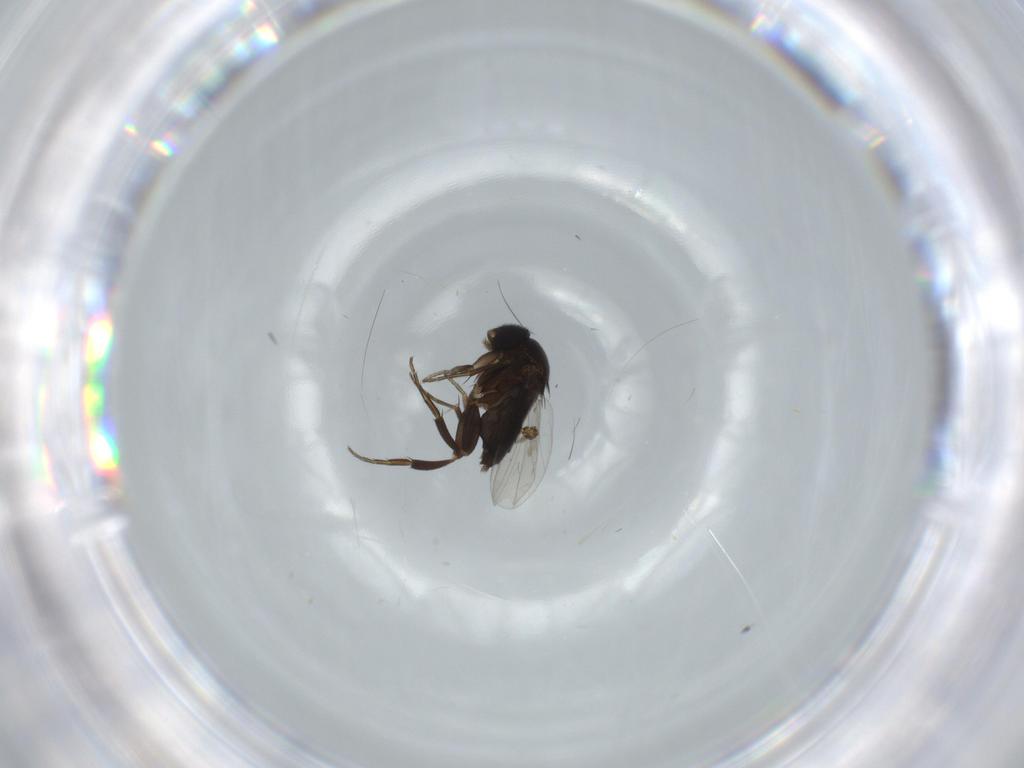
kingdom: Animalia
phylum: Arthropoda
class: Insecta
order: Diptera
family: Phoridae
